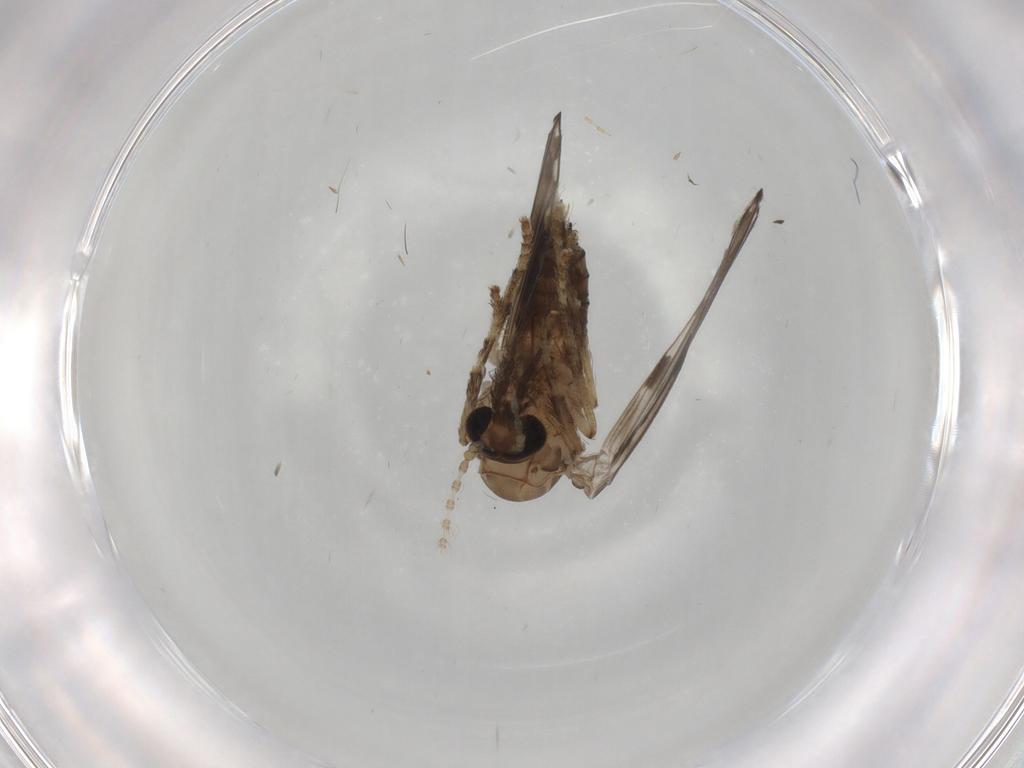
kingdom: Animalia
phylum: Arthropoda
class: Insecta
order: Diptera
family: Psychodidae
